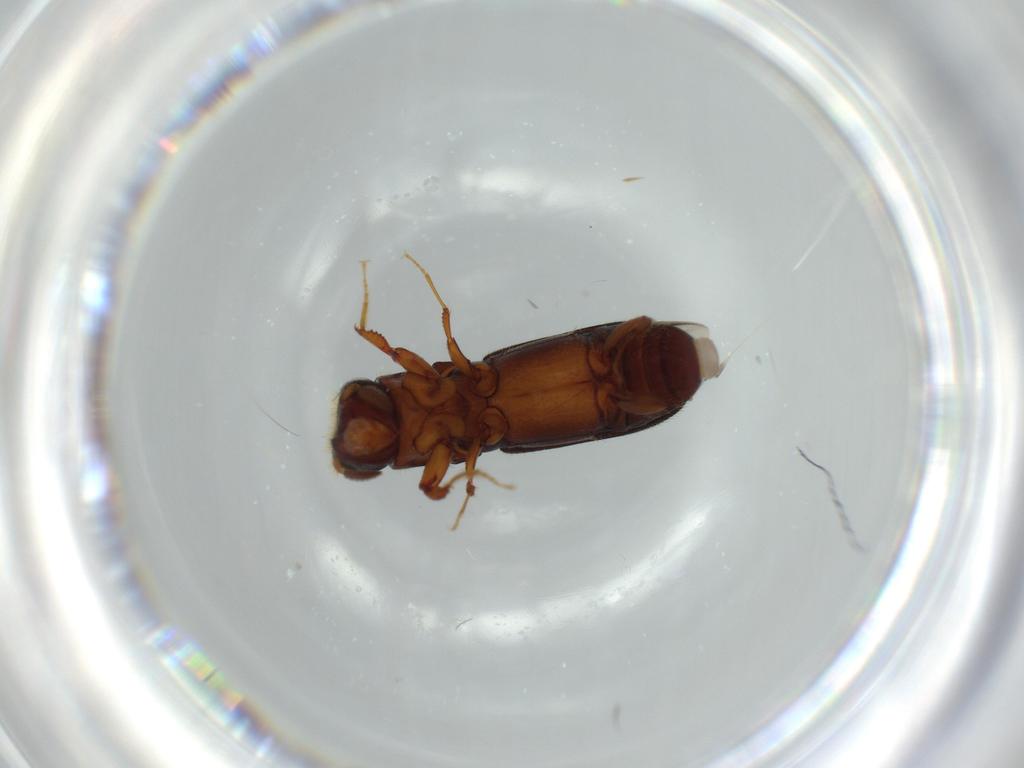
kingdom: Animalia
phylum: Arthropoda
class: Insecta
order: Coleoptera
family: Curculionidae
